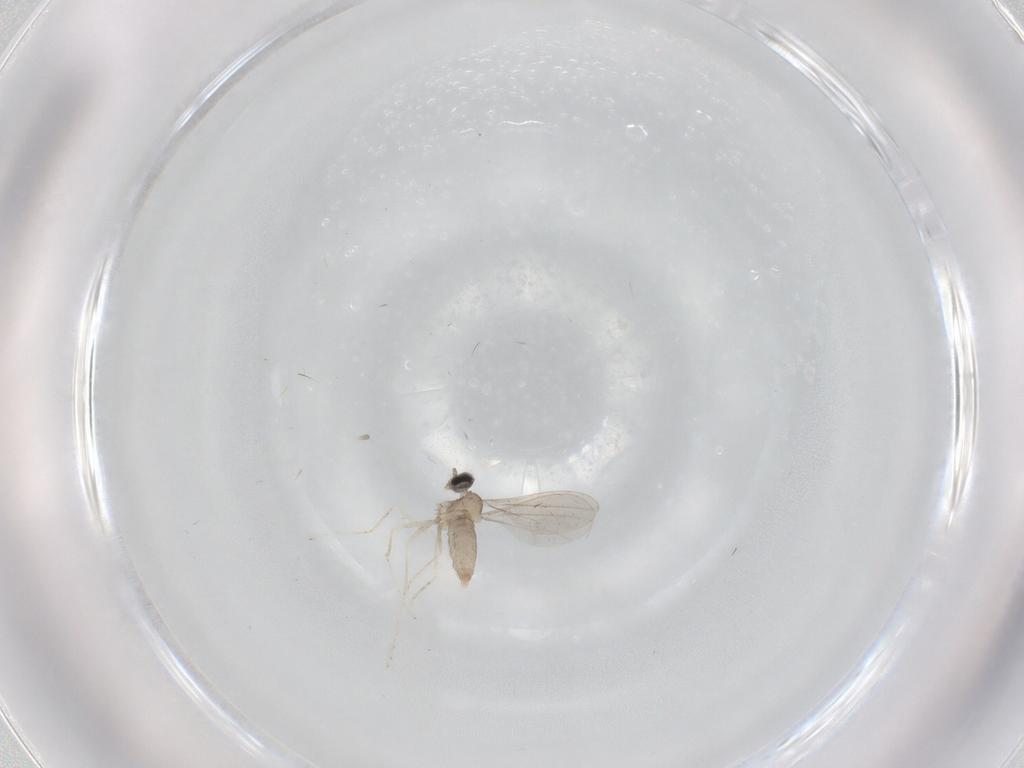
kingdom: Animalia
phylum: Arthropoda
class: Insecta
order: Diptera
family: Cecidomyiidae
